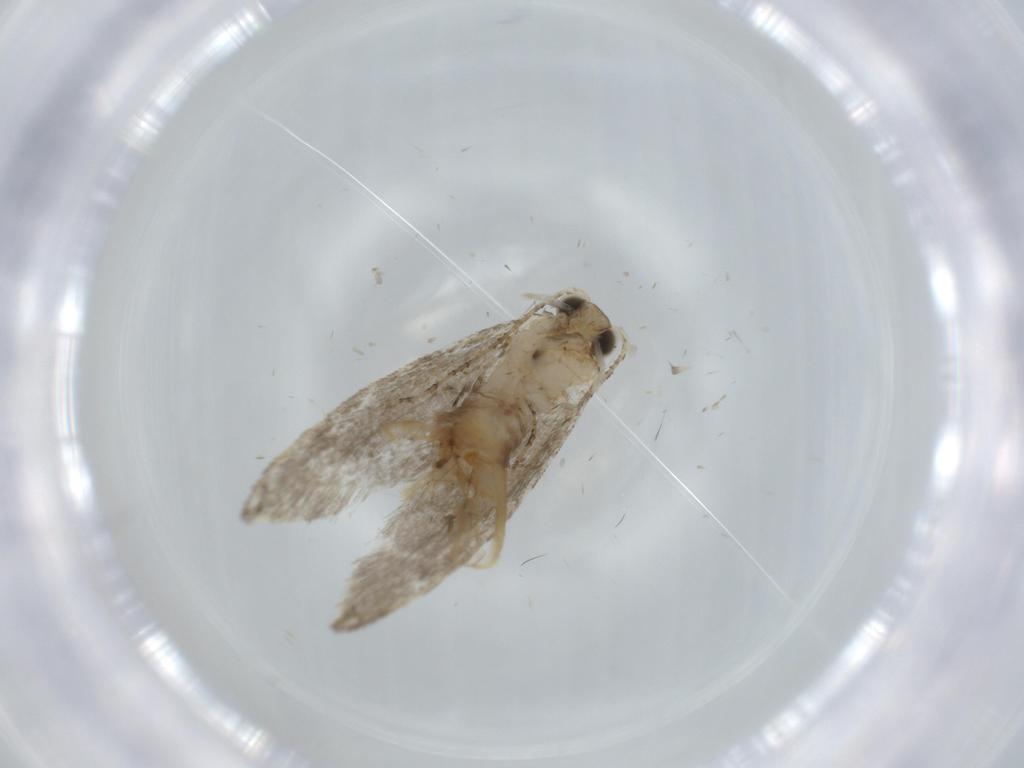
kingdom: Animalia
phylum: Arthropoda
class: Insecta
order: Lepidoptera
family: Tineidae
